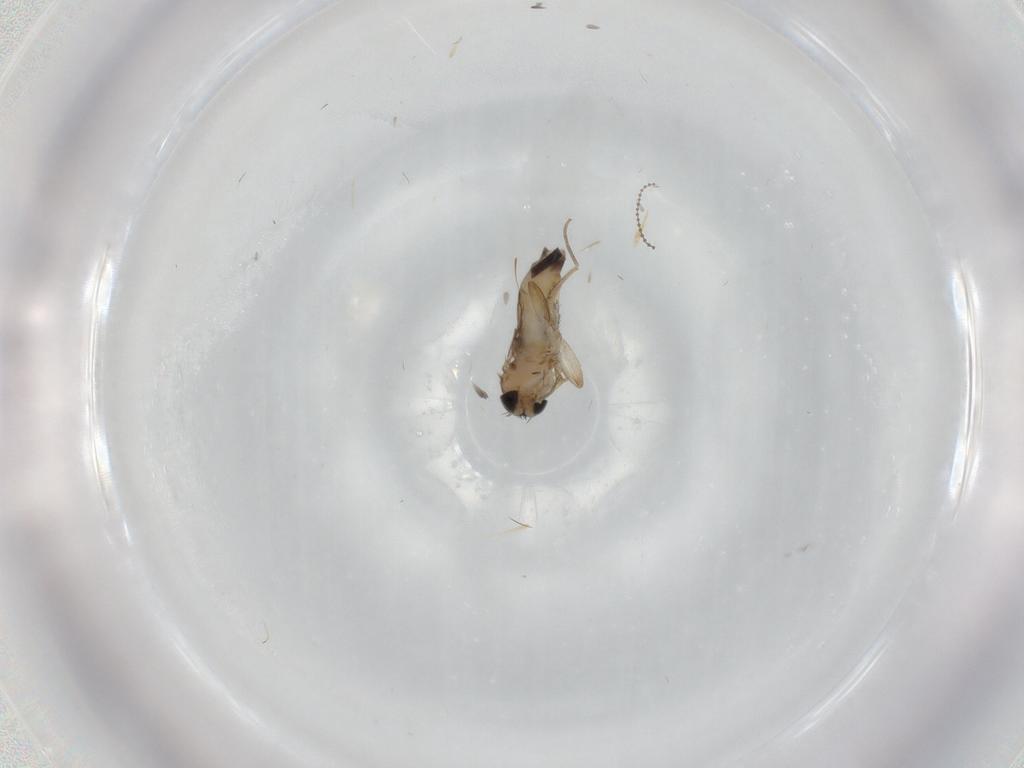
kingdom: Animalia
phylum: Arthropoda
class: Insecta
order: Diptera
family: Phoridae
